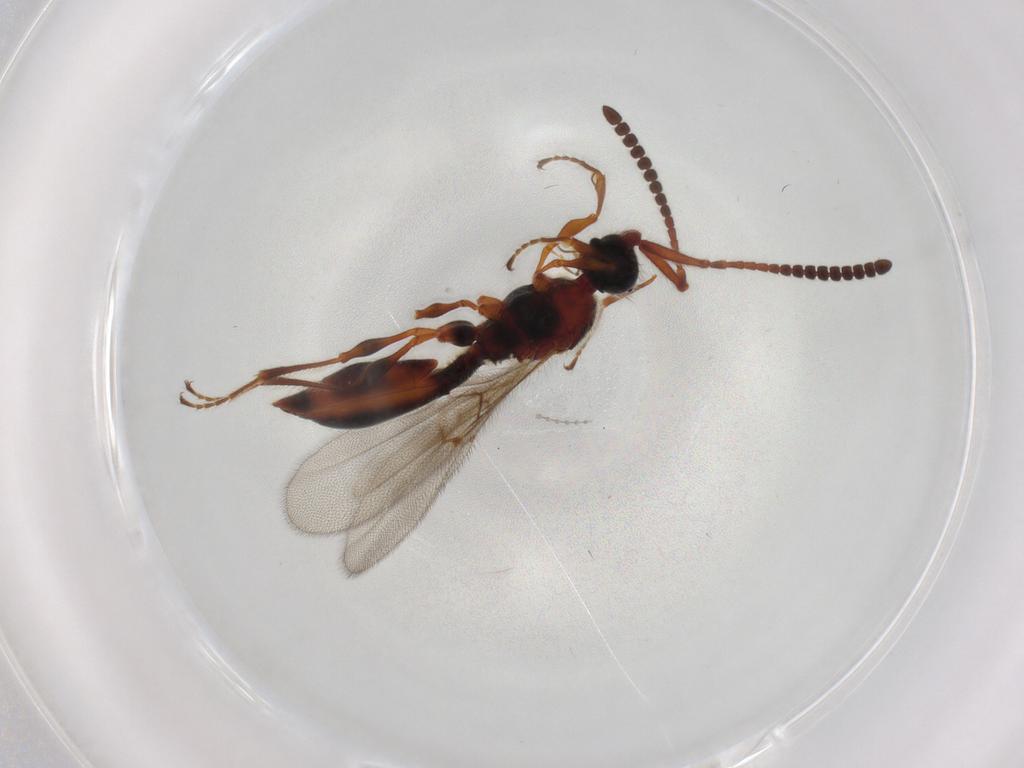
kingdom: Animalia
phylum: Arthropoda
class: Insecta
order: Hymenoptera
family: Diapriidae
